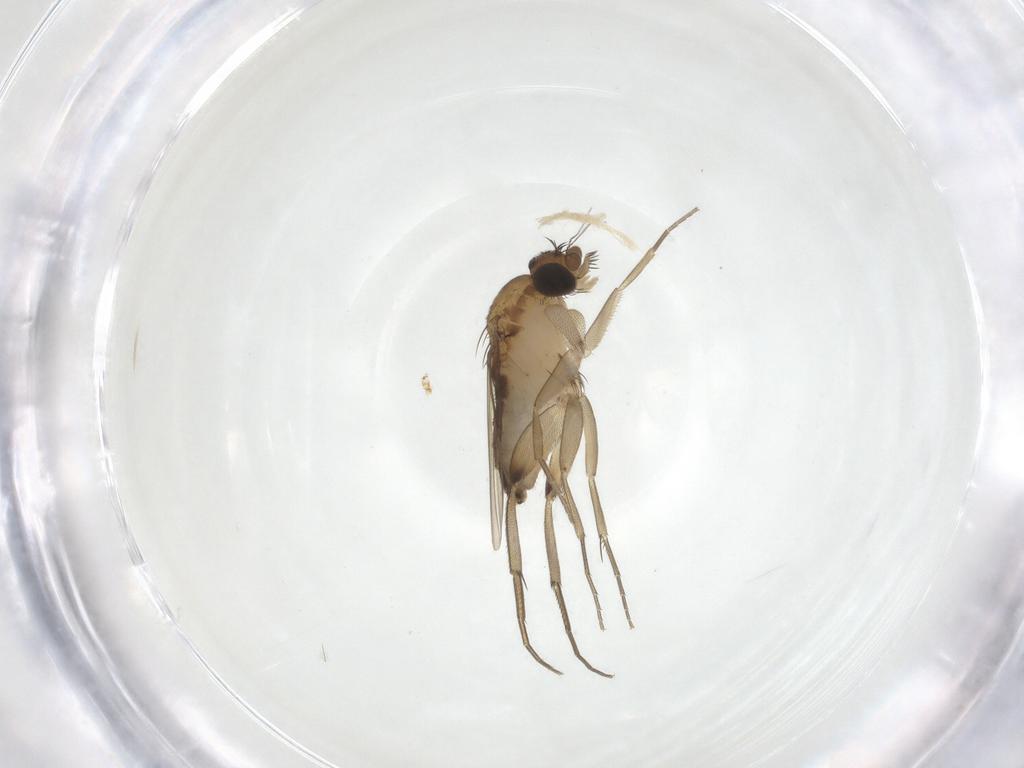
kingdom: Animalia
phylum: Arthropoda
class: Insecta
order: Diptera
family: Phoridae
